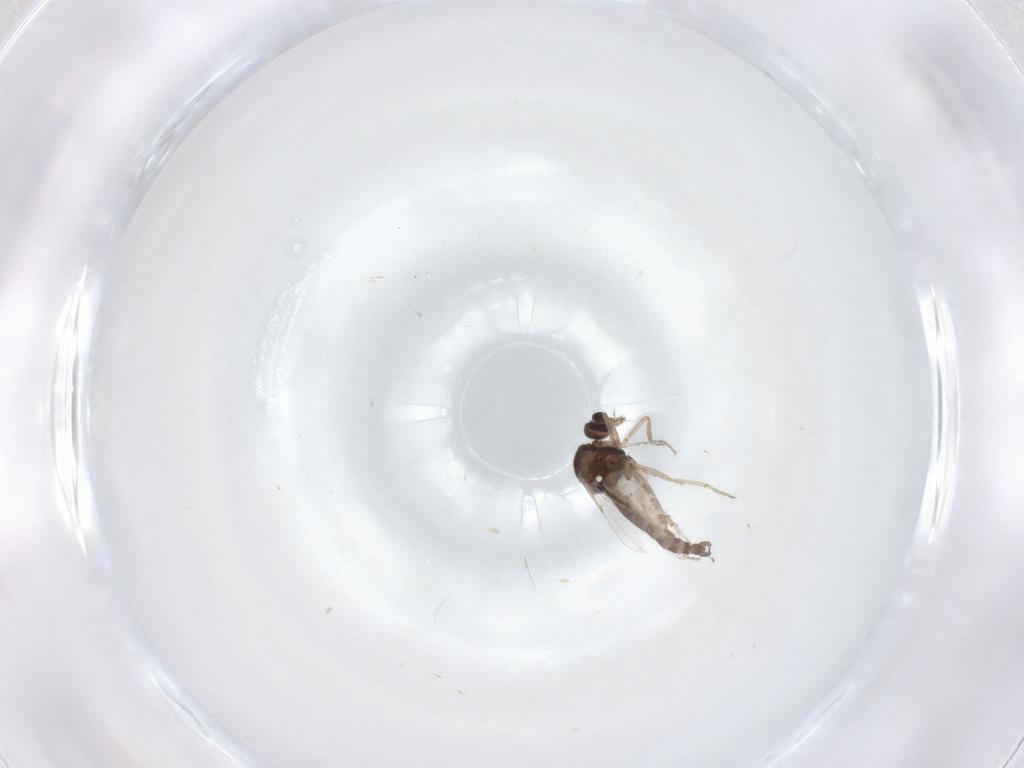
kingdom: Animalia
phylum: Arthropoda
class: Insecta
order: Diptera
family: Ceratopogonidae
